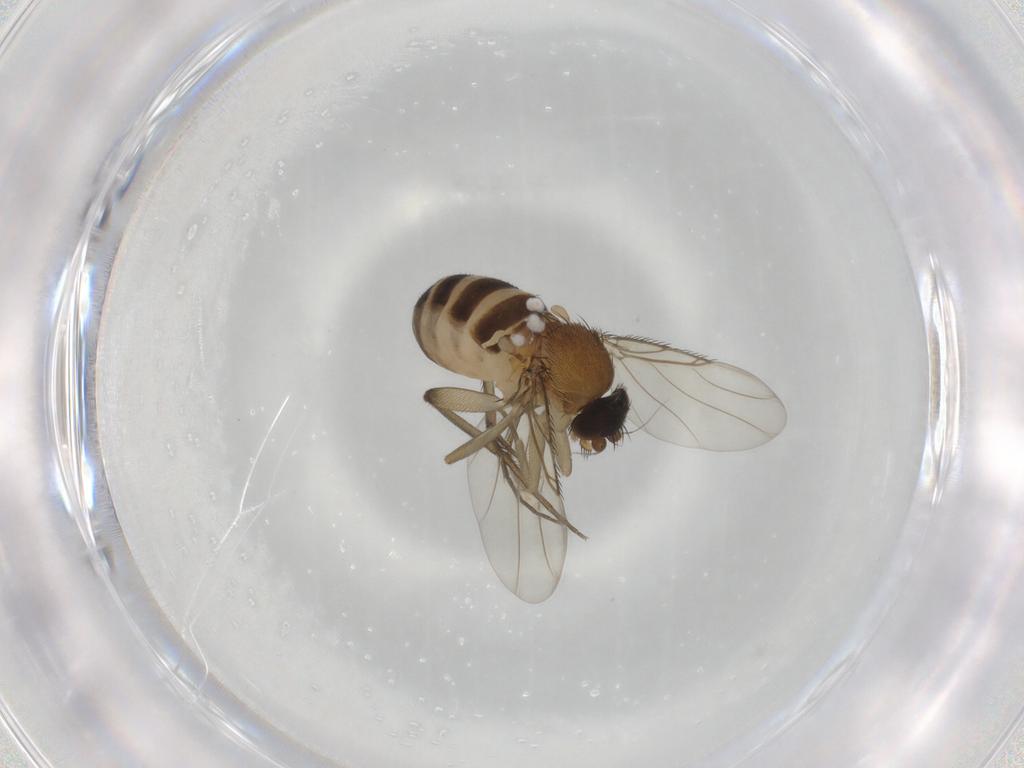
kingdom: Animalia
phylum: Arthropoda
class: Insecta
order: Diptera
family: Phoridae
